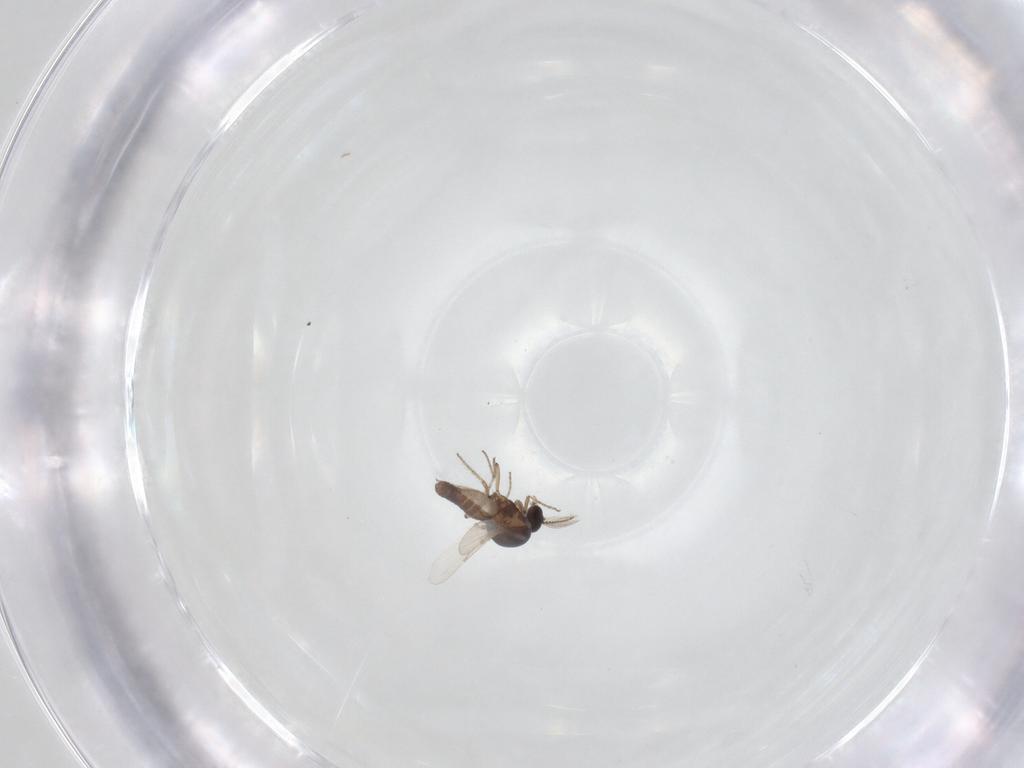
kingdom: Animalia
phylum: Arthropoda
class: Insecta
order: Diptera
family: Ceratopogonidae
